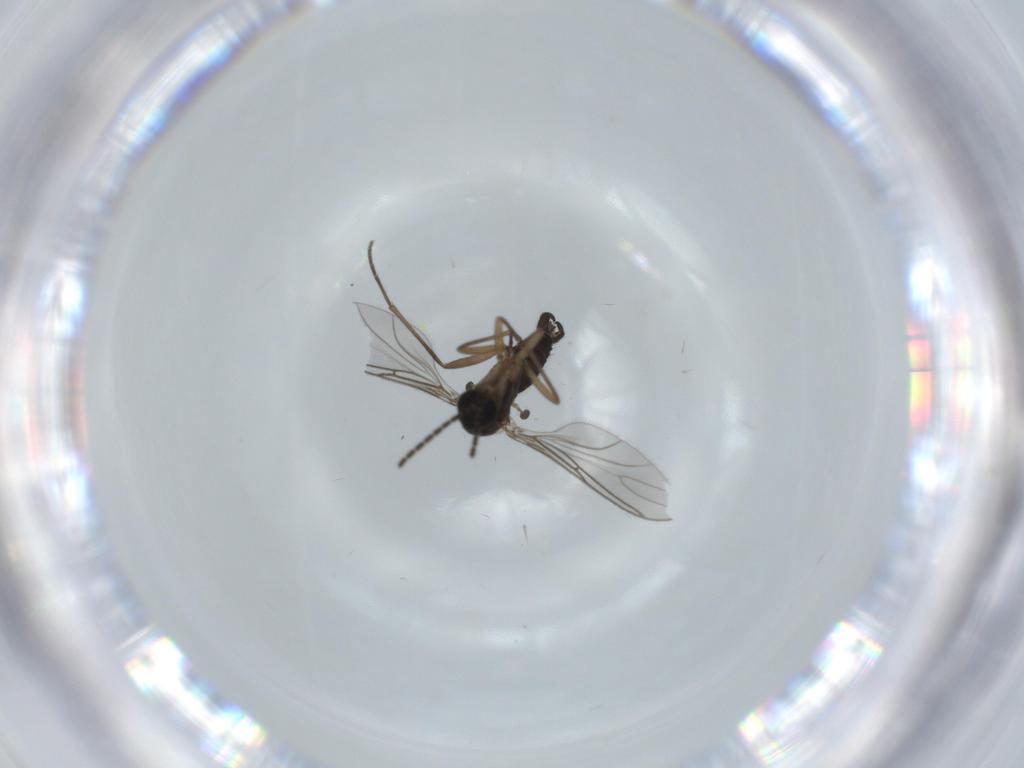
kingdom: Animalia
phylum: Arthropoda
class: Insecta
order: Diptera
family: Sciaridae
